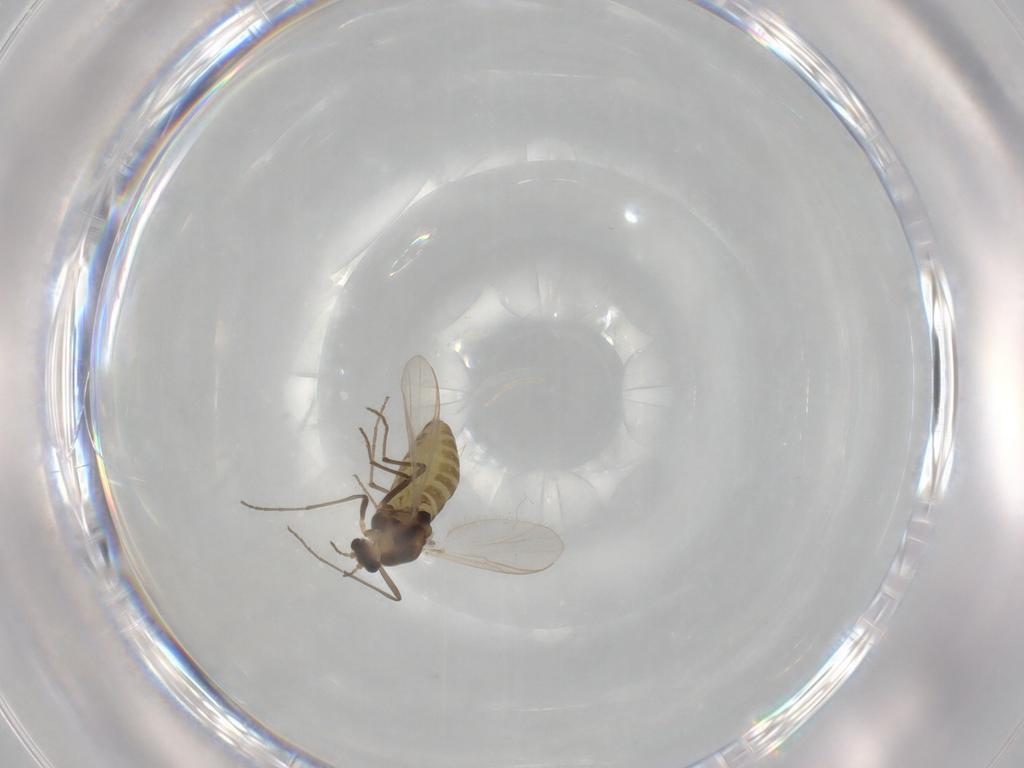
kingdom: Animalia
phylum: Arthropoda
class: Insecta
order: Diptera
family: Chironomidae
